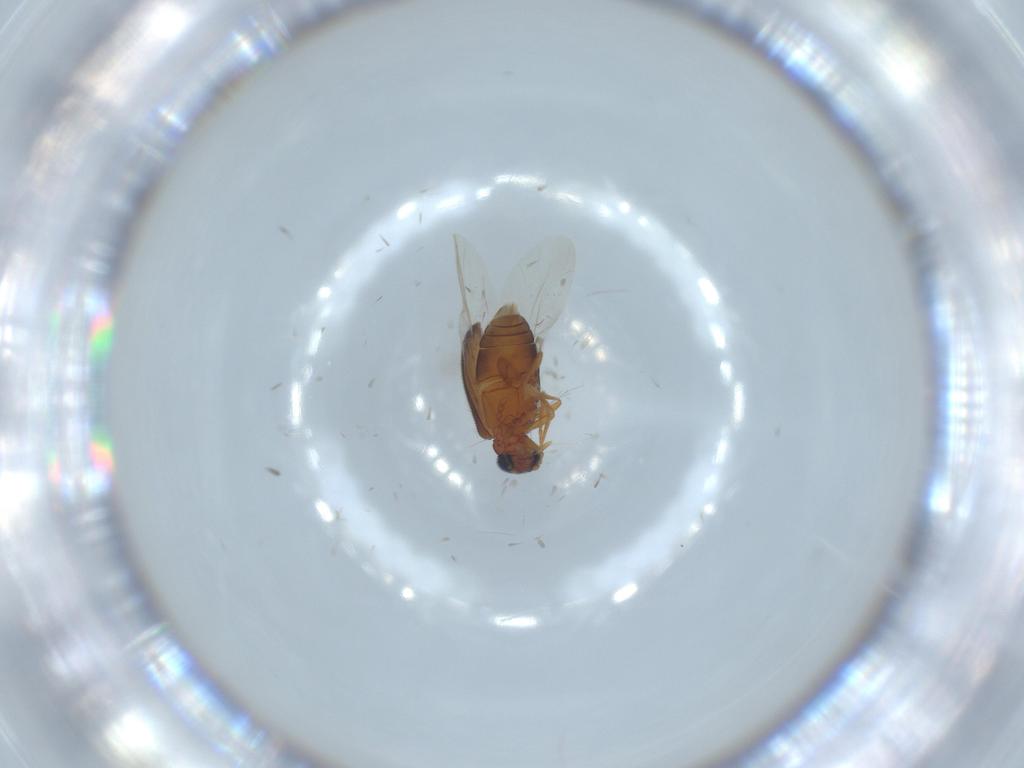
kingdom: Animalia
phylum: Arthropoda
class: Insecta
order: Coleoptera
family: Aderidae
